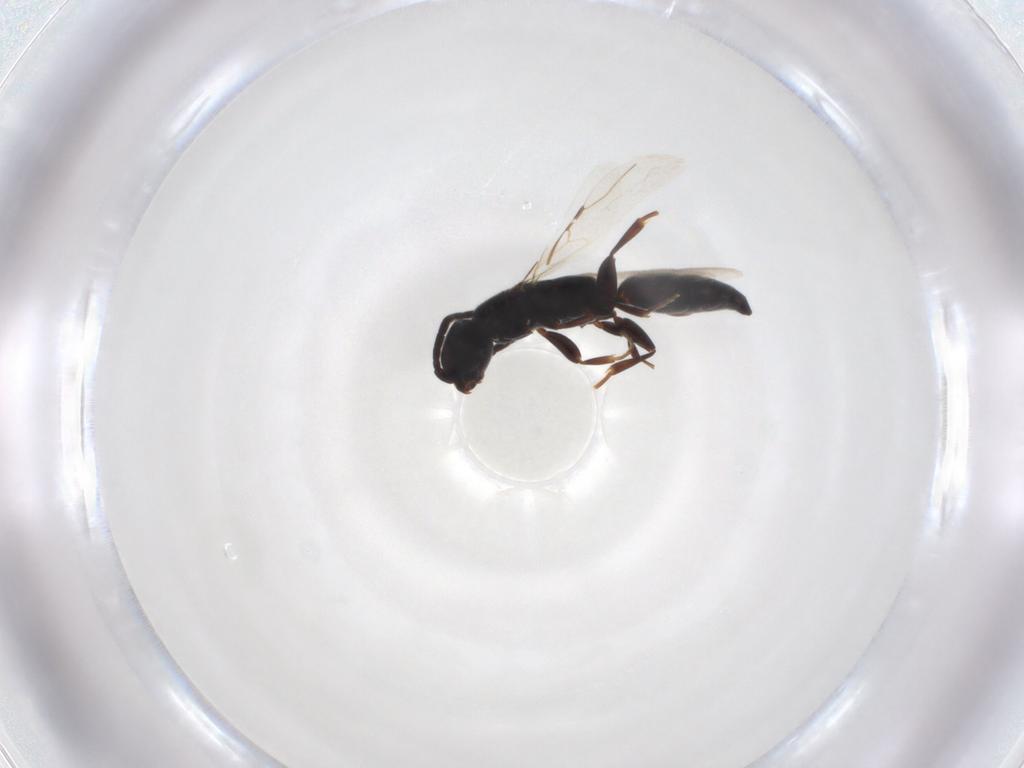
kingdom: Animalia
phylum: Arthropoda
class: Insecta
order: Hymenoptera
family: Bethylidae
